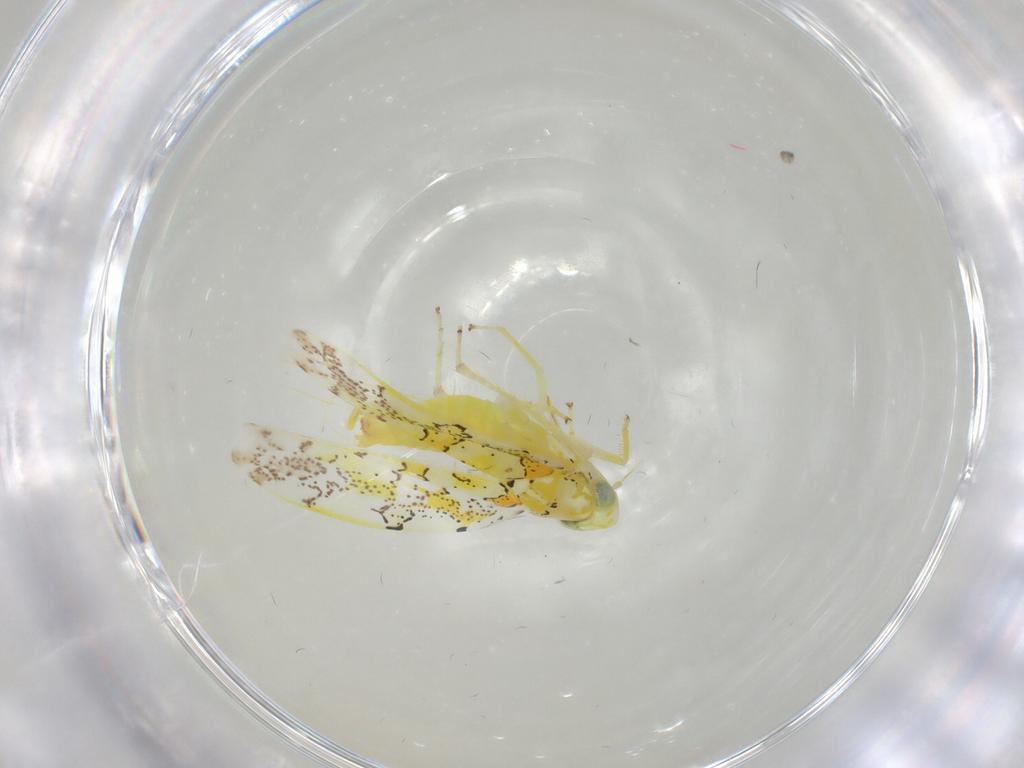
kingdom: Animalia
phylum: Arthropoda
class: Insecta
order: Hemiptera
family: Cicadellidae
